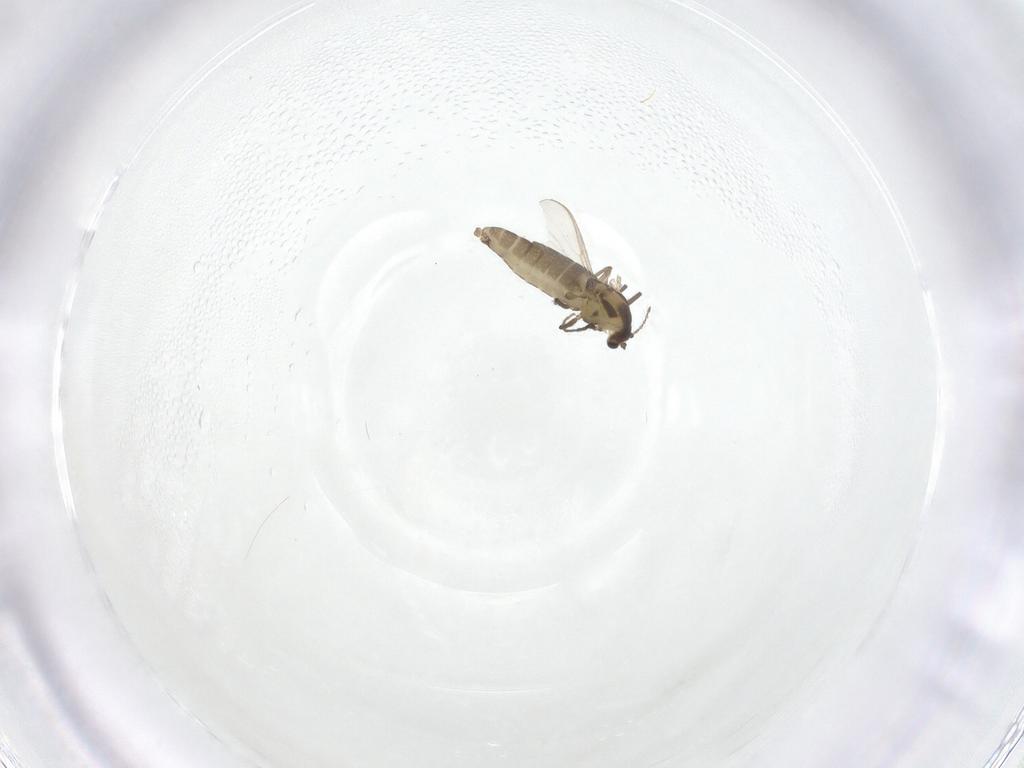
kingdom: Animalia
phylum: Arthropoda
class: Insecta
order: Diptera
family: Chironomidae
